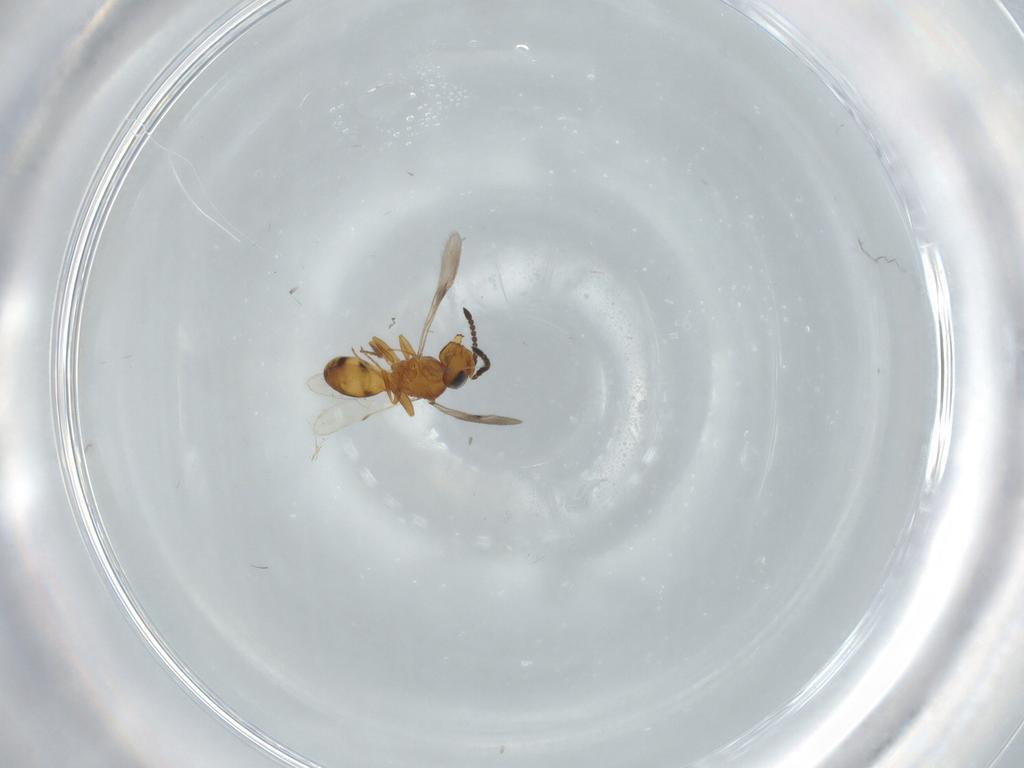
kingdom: Animalia
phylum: Arthropoda
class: Insecta
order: Hymenoptera
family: Scelionidae
